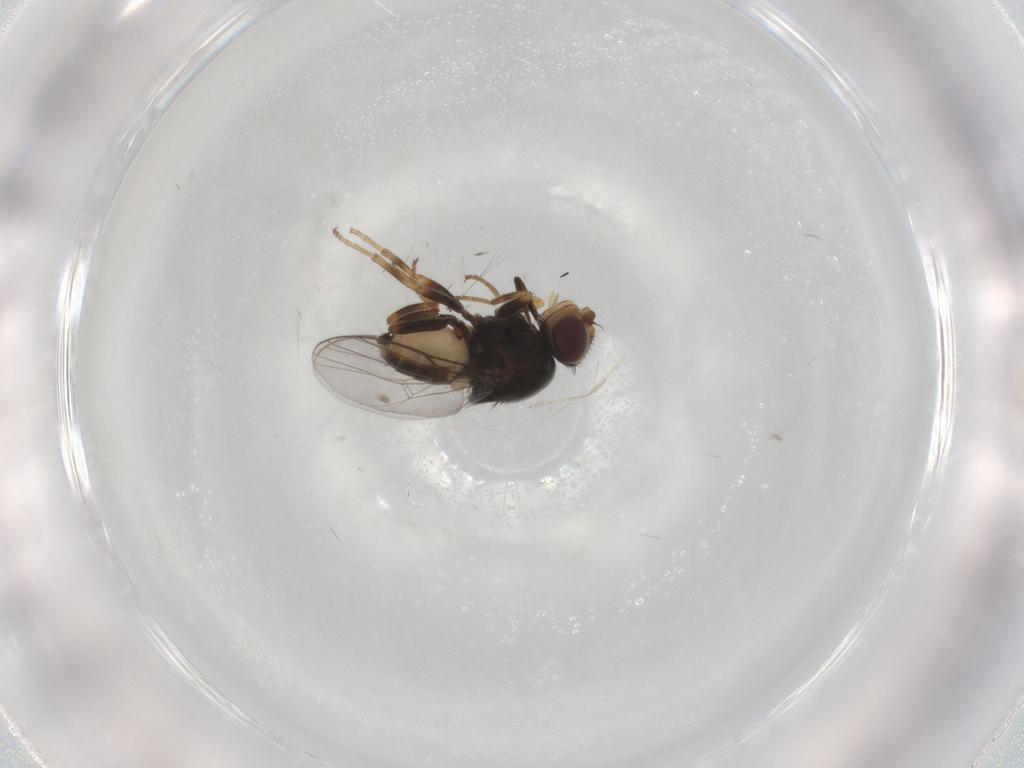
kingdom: Animalia
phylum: Arthropoda
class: Insecta
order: Diptera
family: Chloropidae
